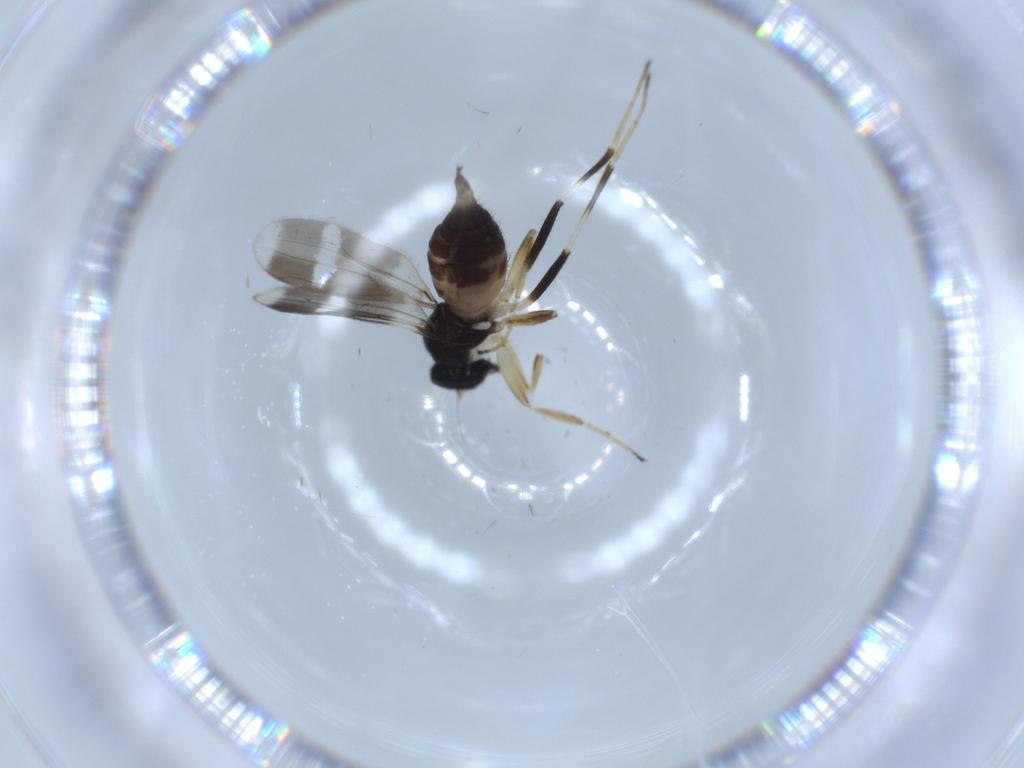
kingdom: Animalia
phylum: Arthropoda
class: Insecta
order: Diptera
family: Hybotidae
